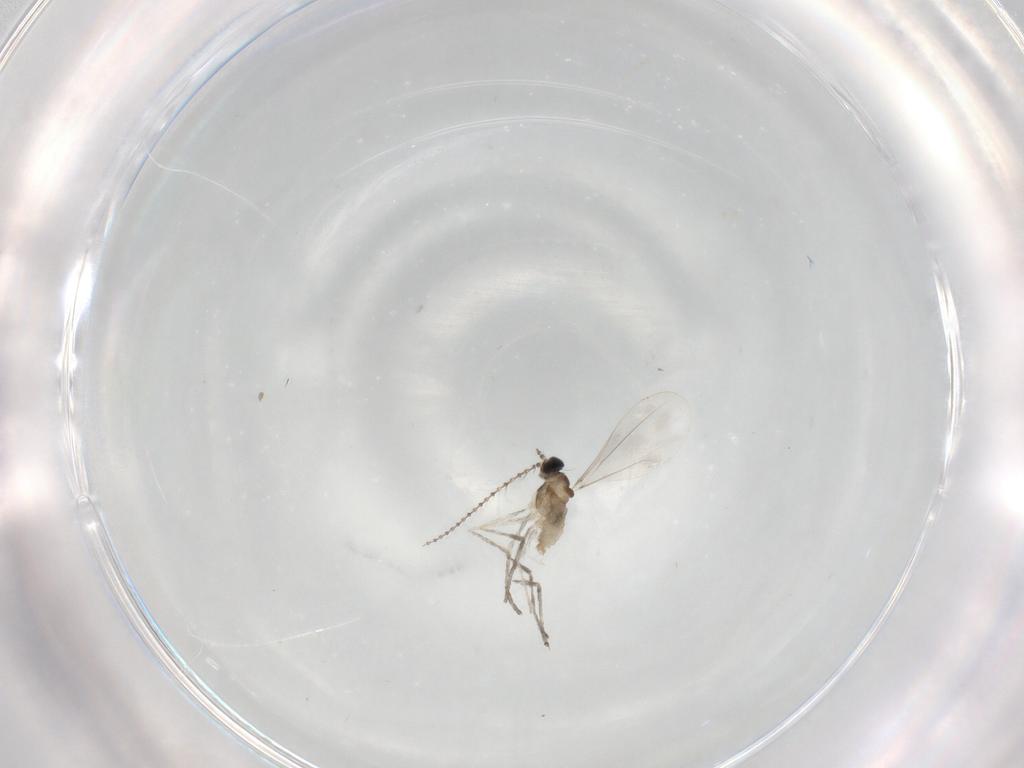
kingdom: Animalia
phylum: Arthropoda
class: Insecta
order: Diptera
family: Cecidomyiidae
